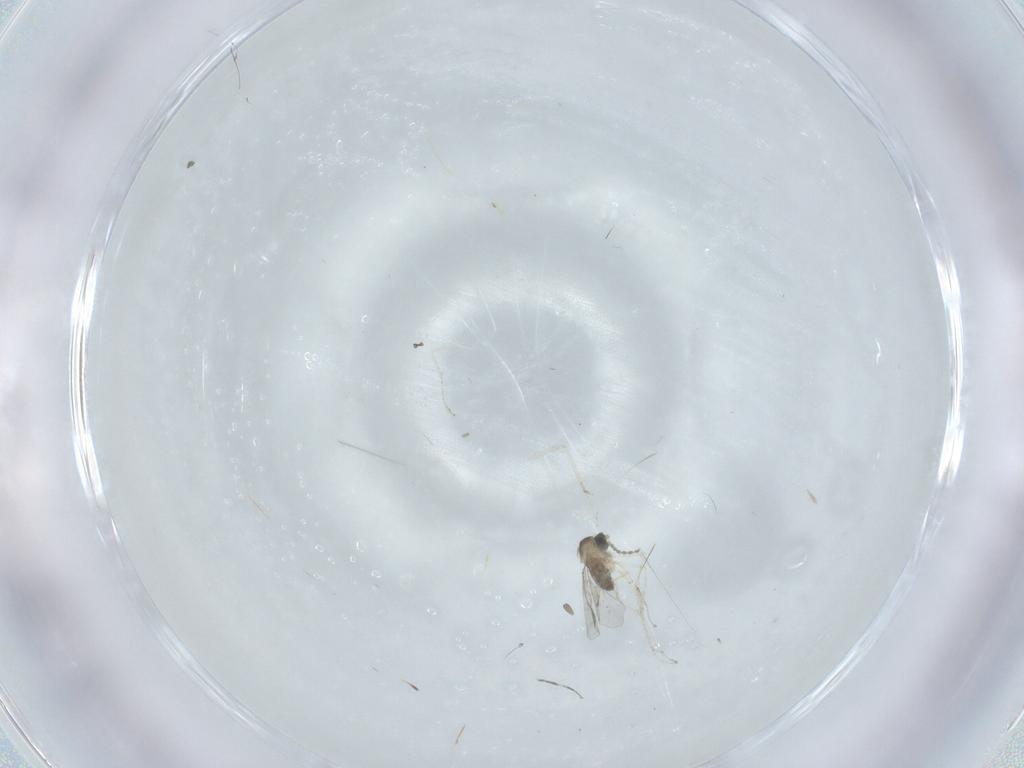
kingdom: Animalia
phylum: Arthropoda
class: Insecta
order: Diptera
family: Cecidomyiidae
